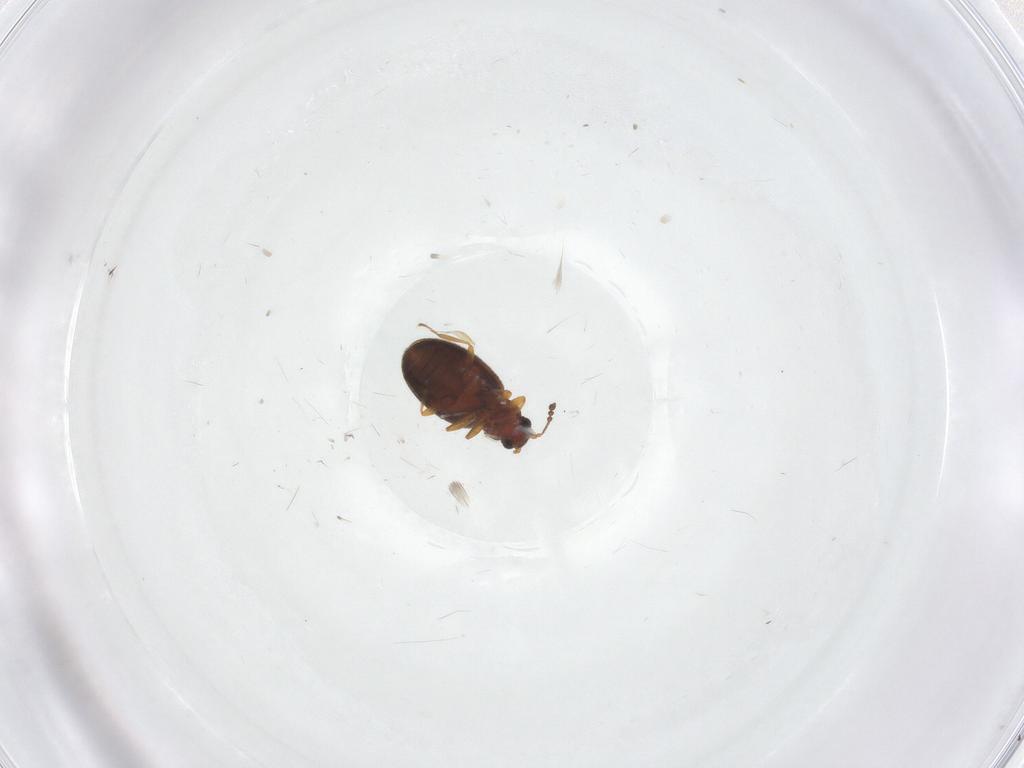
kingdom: Animalia
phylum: Arthropoda
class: Insecta
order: Coleoptera
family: Latridiidae
